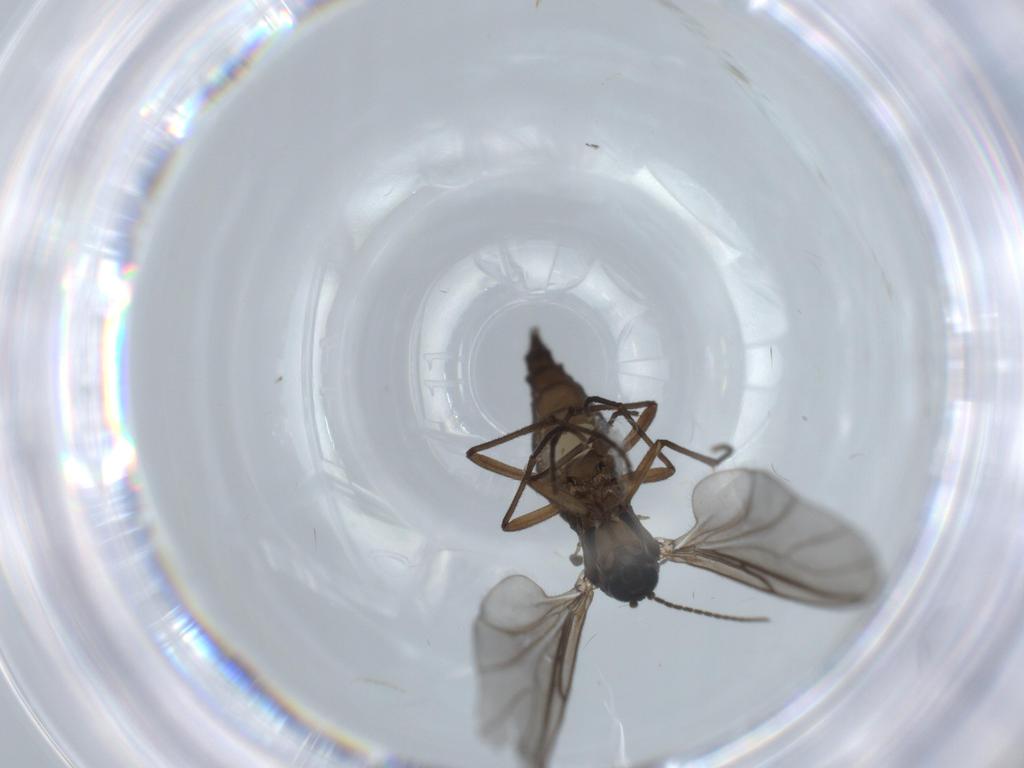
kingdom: Animalia
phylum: Arthropoda
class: Insecta
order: Diptera
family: Sciaridae
